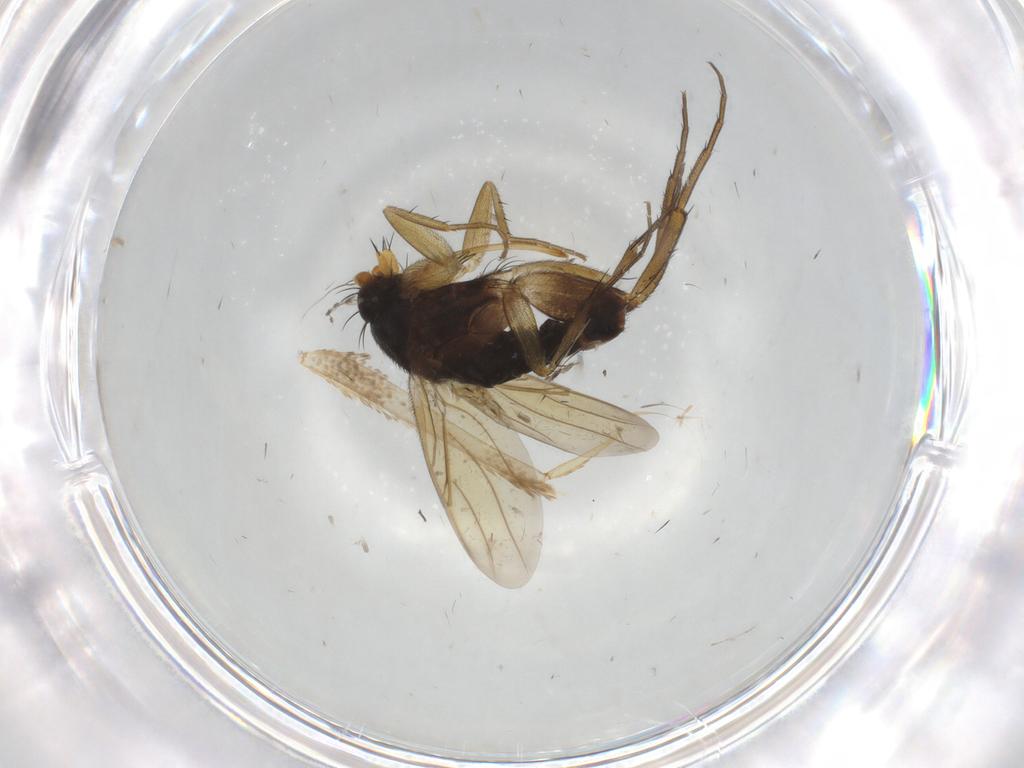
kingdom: Animalia
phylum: Arthropoda
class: Insecta
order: Diptera
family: Phoridae
